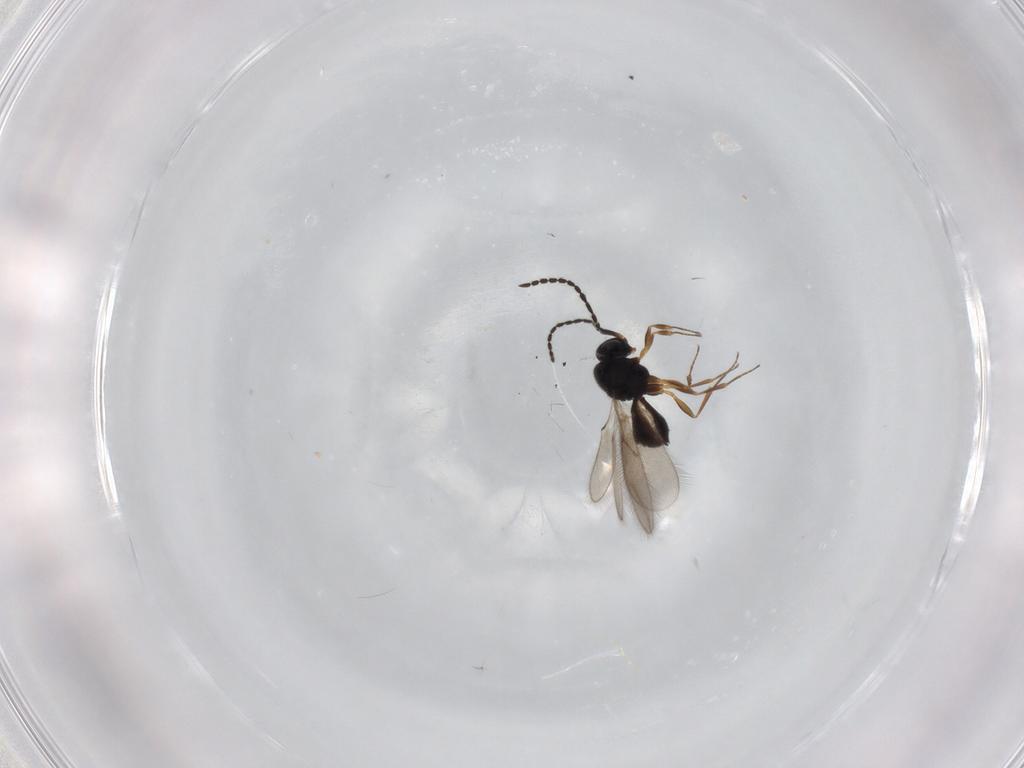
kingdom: Animalia
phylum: Arthropoda
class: Insecta
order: Hymenoptera
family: Scelionidae
